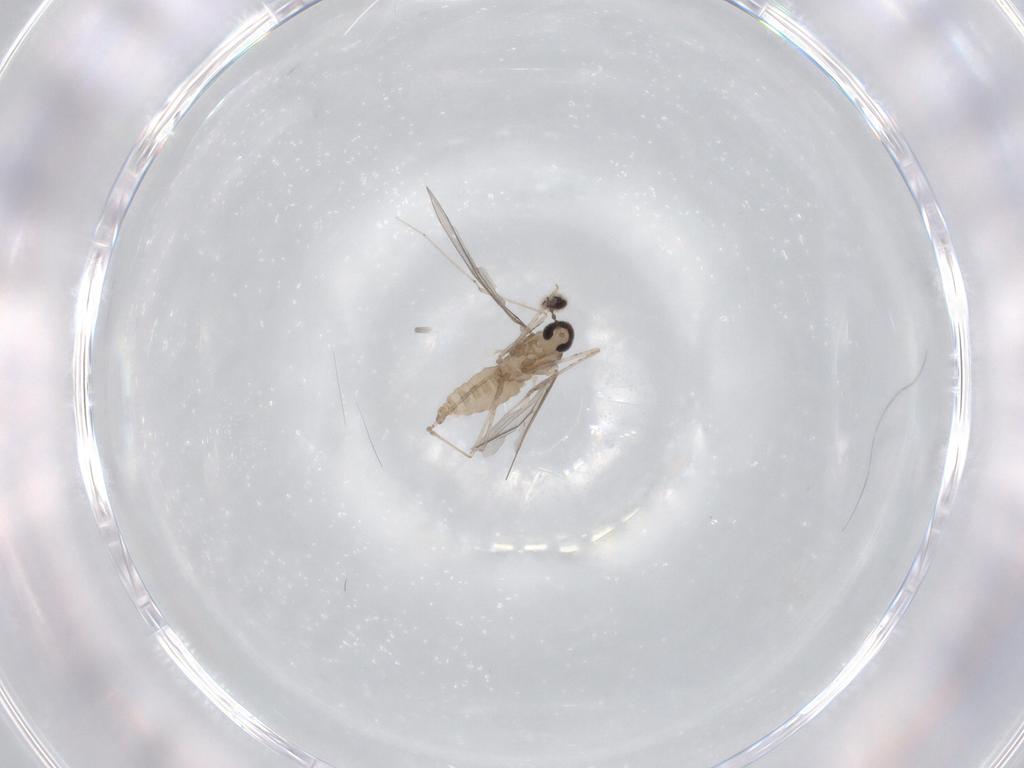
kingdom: Animalia
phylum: Arthropoda
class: Insecta
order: Diptera
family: Cecidomyiidae
